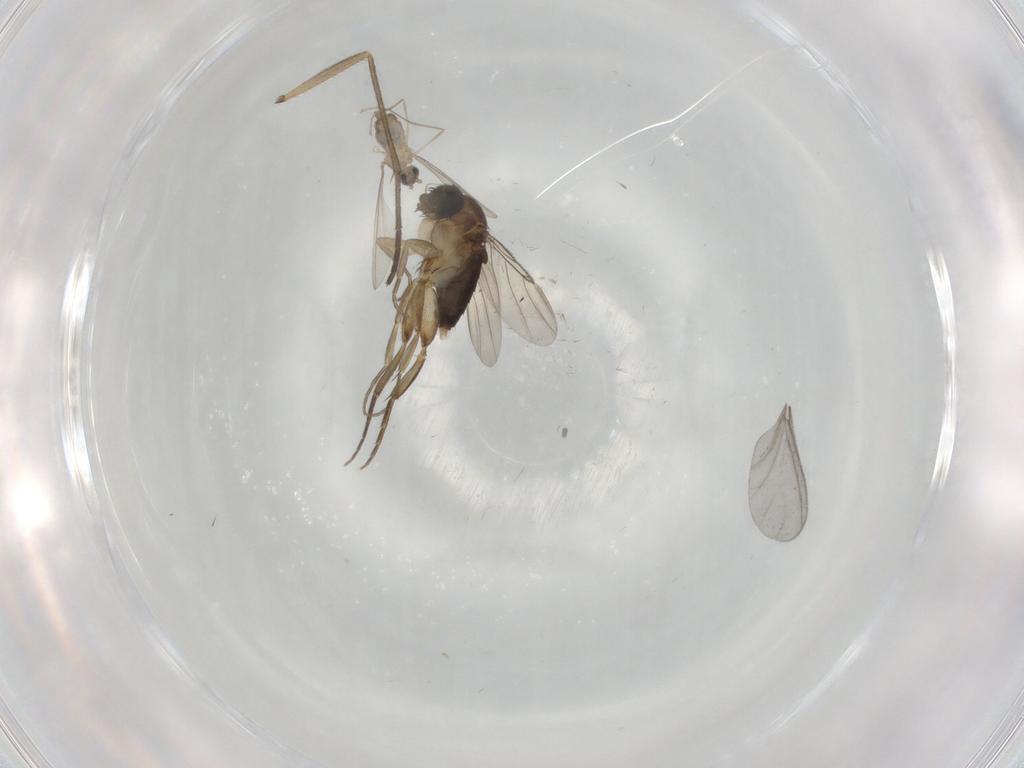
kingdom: Animalia
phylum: Arthropoda
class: Insecta
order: Diptera
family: Phoridae
